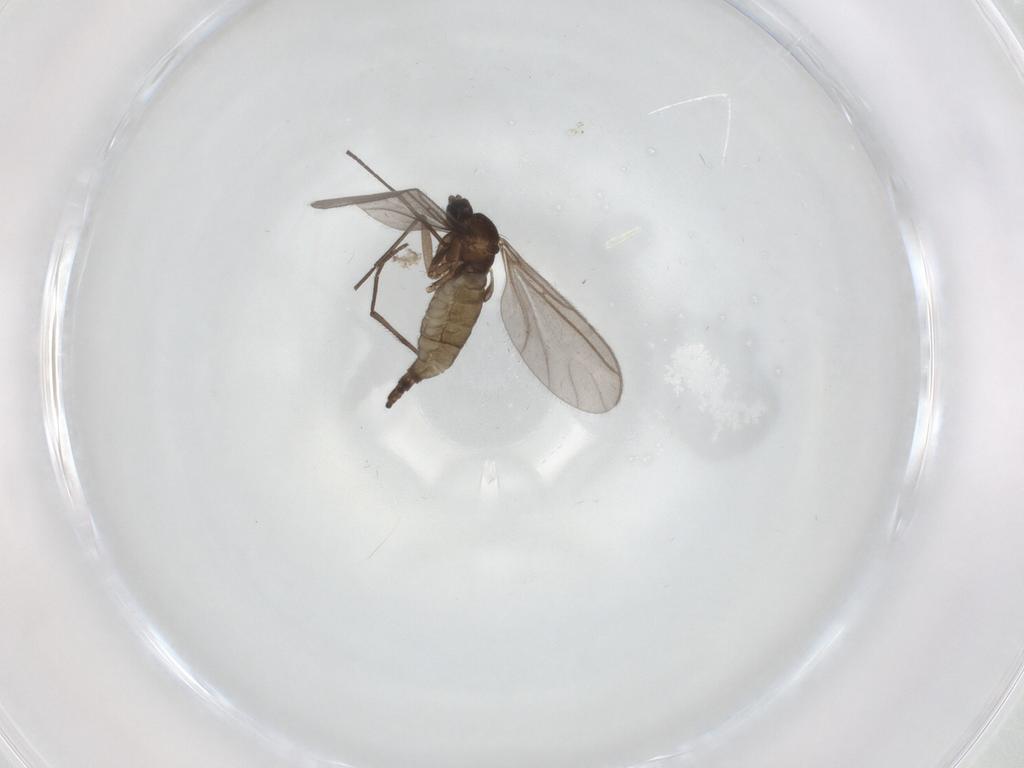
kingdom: Animalia
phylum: Arthropoda
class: Insecta
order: Diptera
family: Sciaridae
